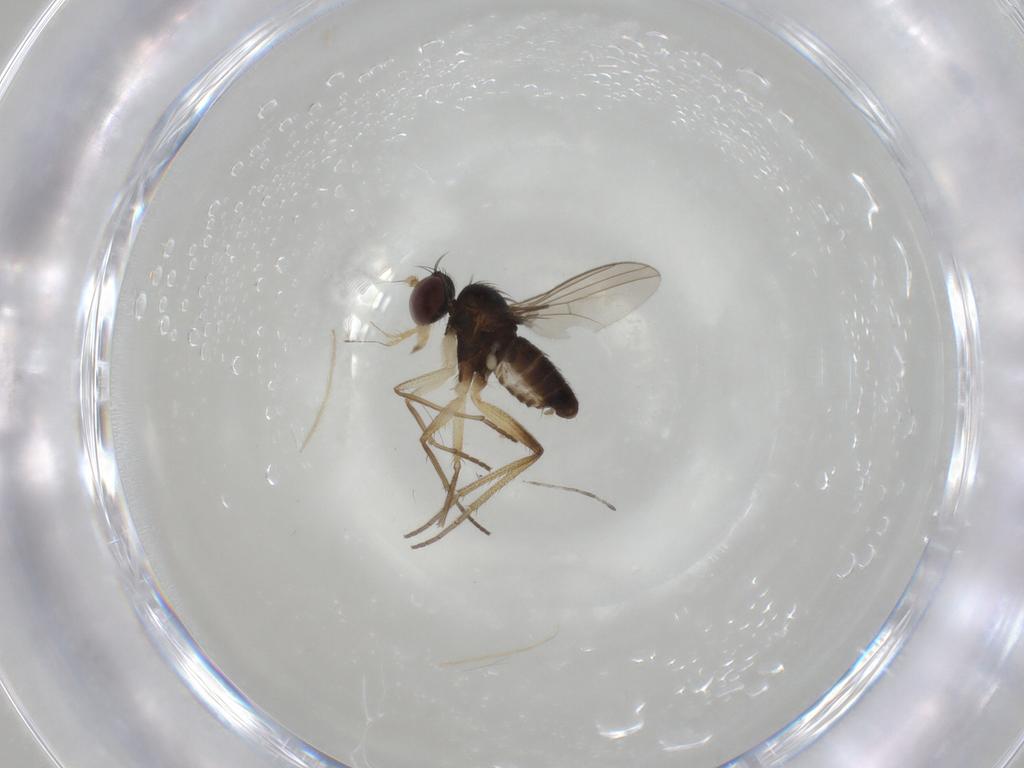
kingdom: Animalia
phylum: Arthropoda
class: Insecta
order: Diptera
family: Dolichopodidae
